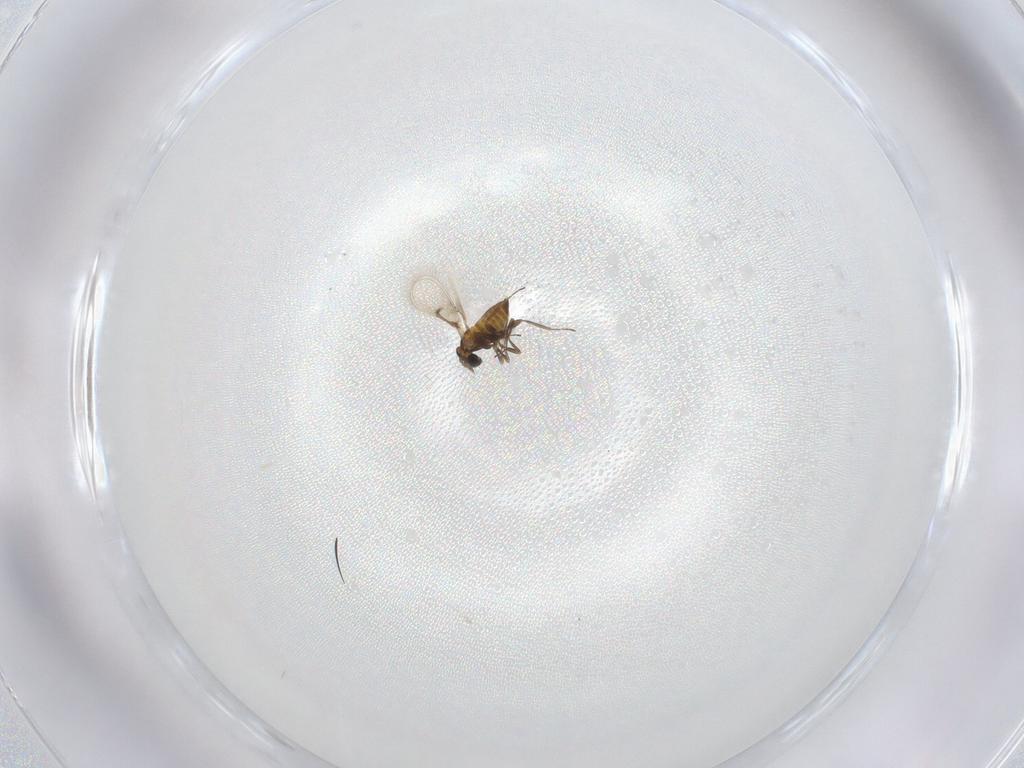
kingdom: Animalia
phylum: Arthropoda
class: Insecta
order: Hymenoptera
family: Trichogrammatidae
